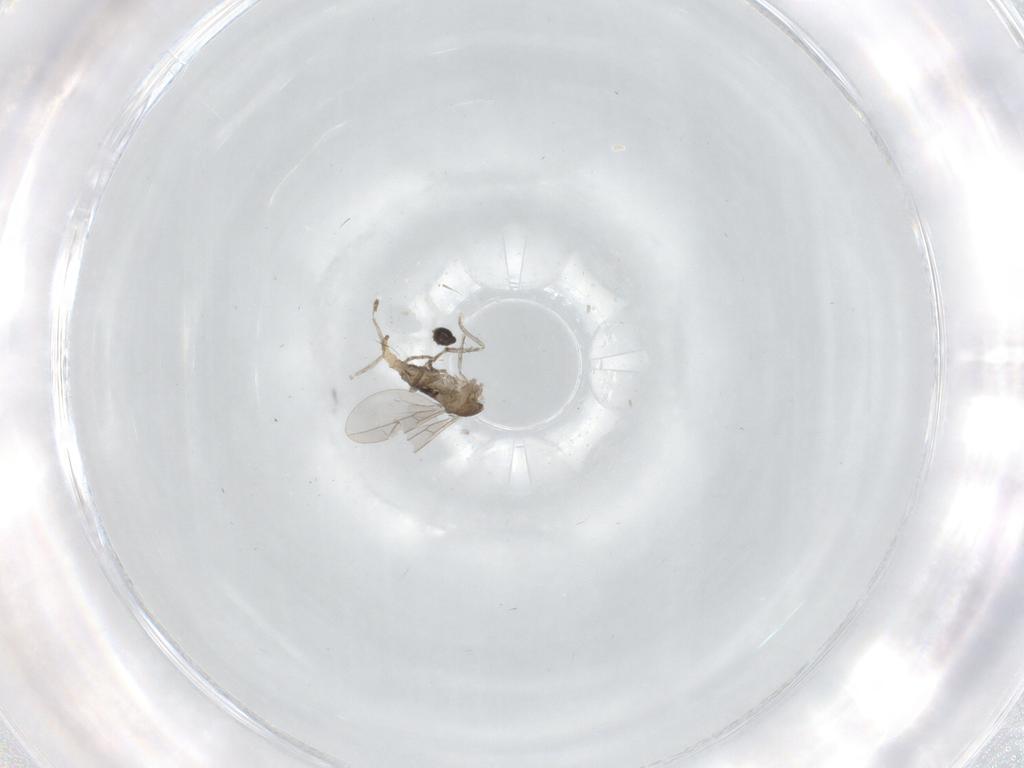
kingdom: Animalia
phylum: Arthropoda
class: Insecta
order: Diptera
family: Cecidomyiidae
